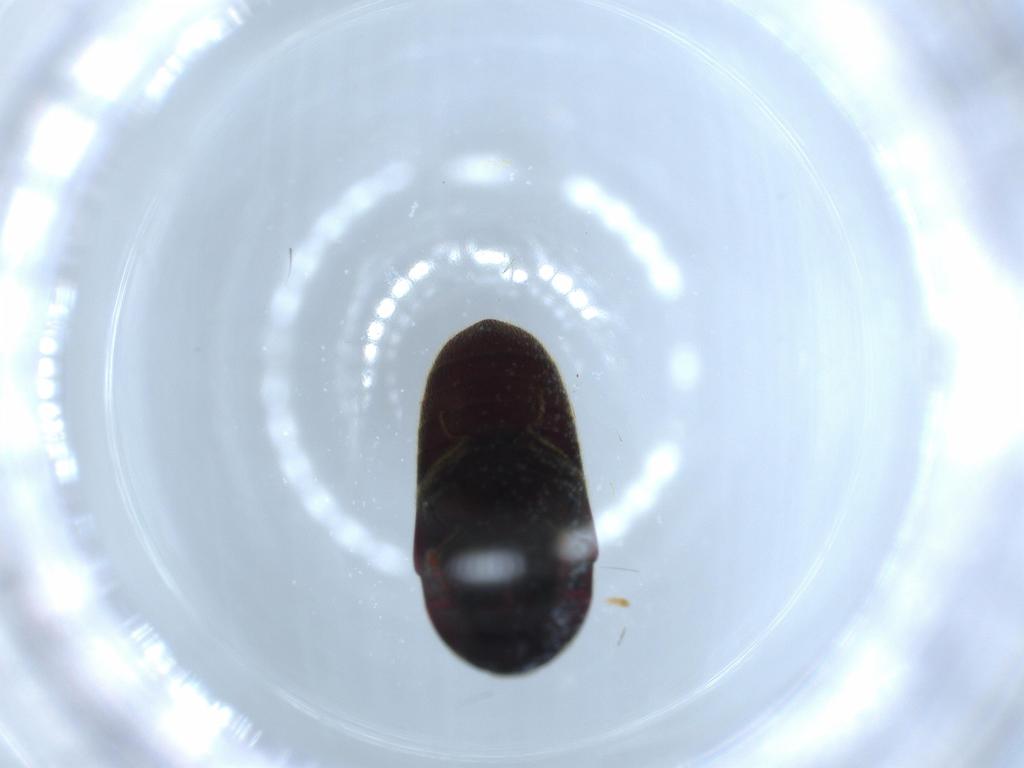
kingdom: Animalia
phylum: Arthropoda
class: Insecta
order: Coleoptera
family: Throscidae
